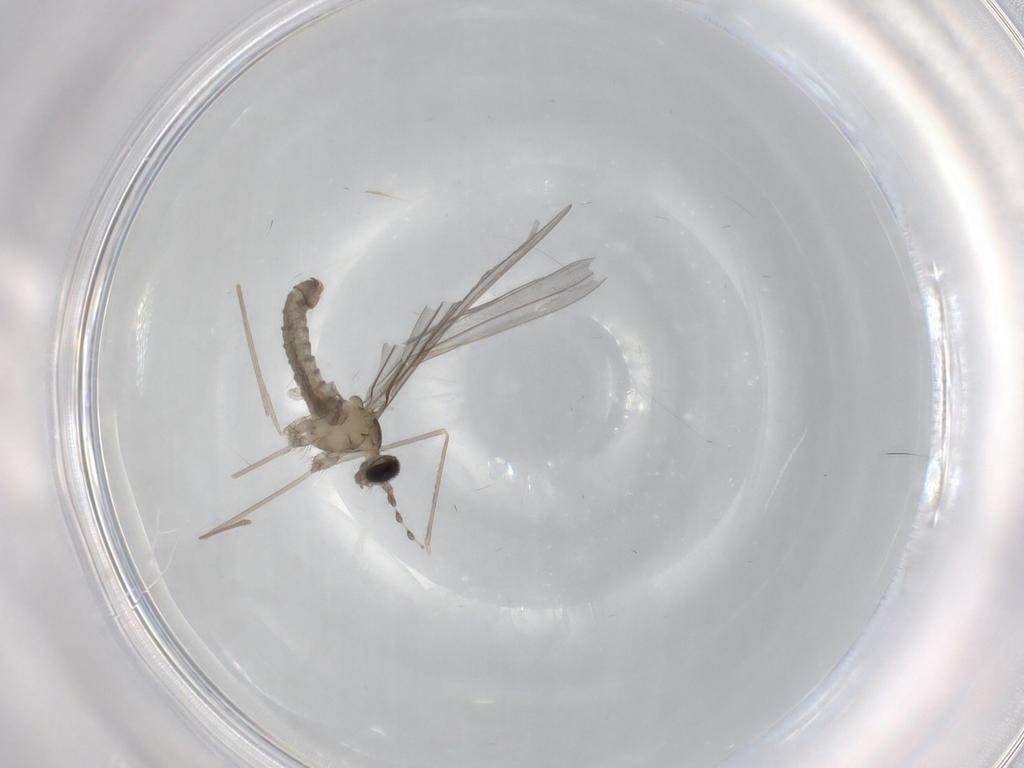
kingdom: Animalia
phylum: Arthropoda
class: Insecta
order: Diptera
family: Cecidomyiidae
